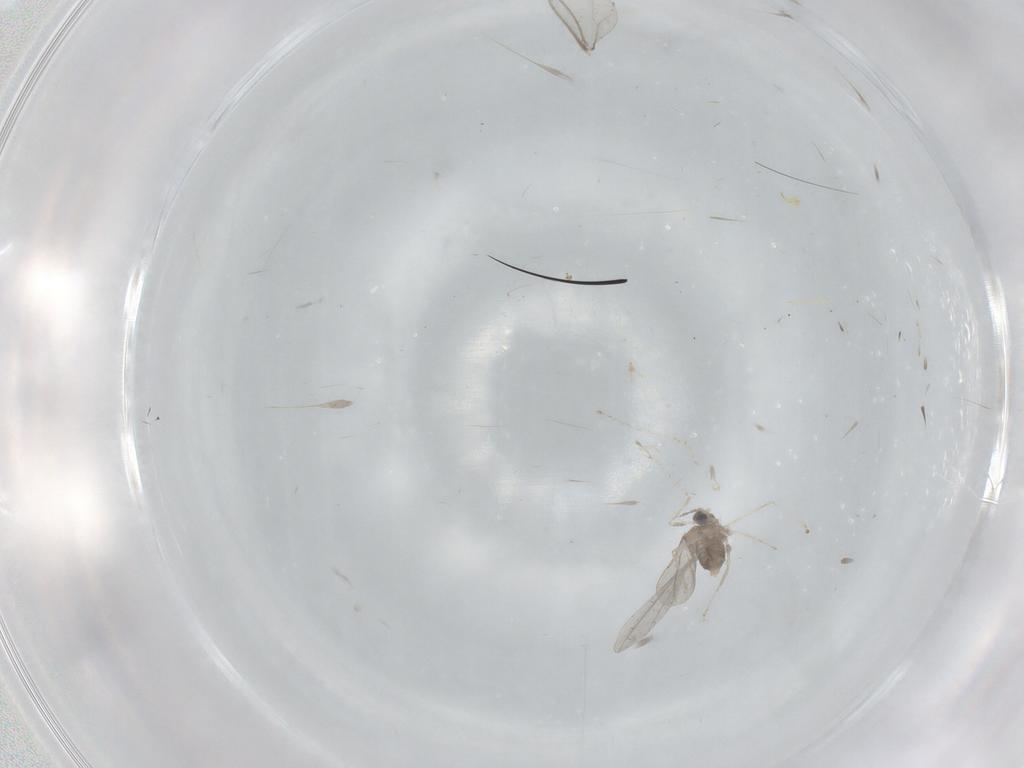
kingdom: Animalia
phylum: Arthropoda
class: Insecta
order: Diptera
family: Cecidomyiidae
